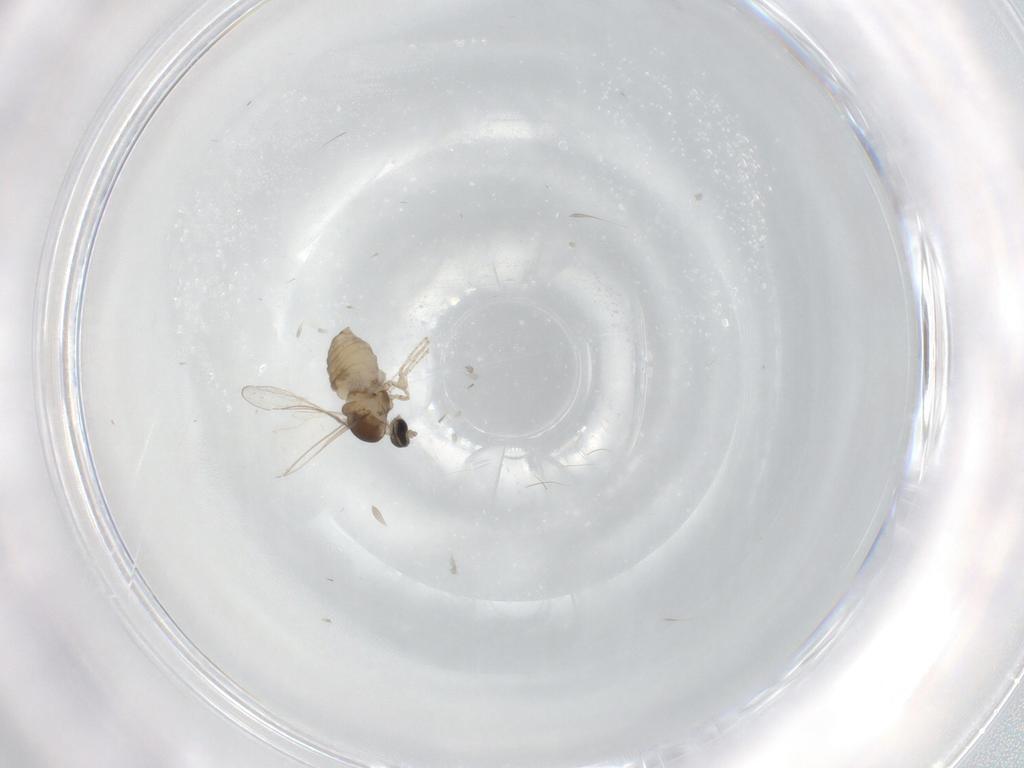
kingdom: Animalia
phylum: Arthropoda
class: Insecta
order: Diptera
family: Cecidomyiidae
